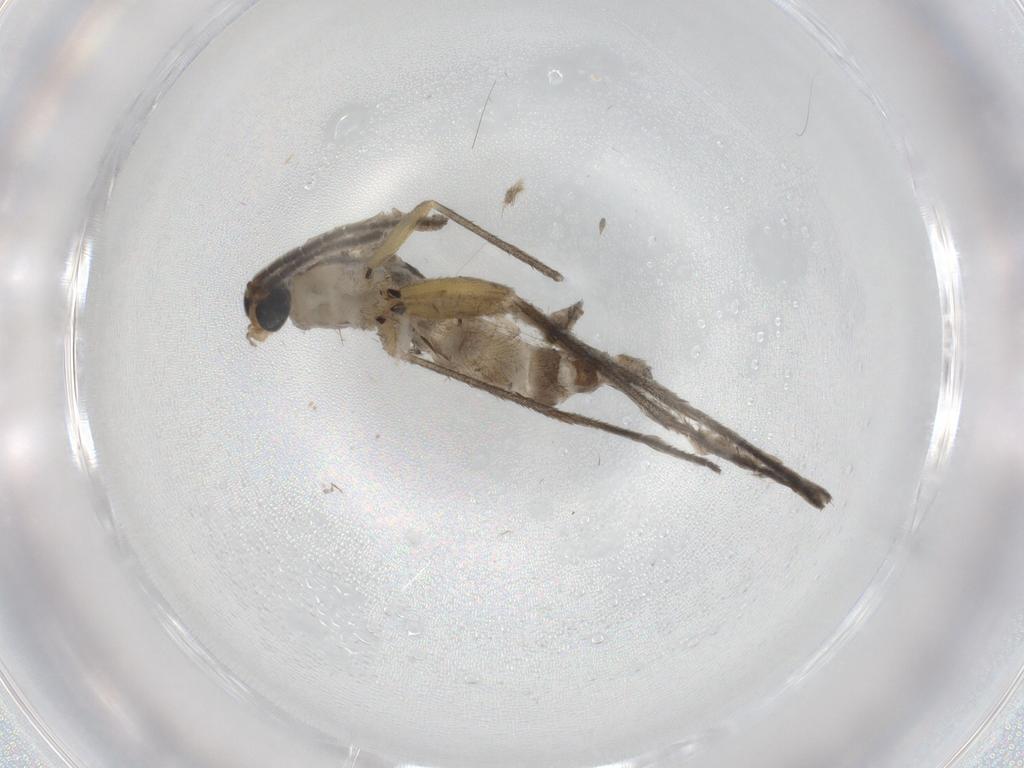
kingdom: Animalia
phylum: Arthropoda
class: Insecta
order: Diptera
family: Sciaridae
